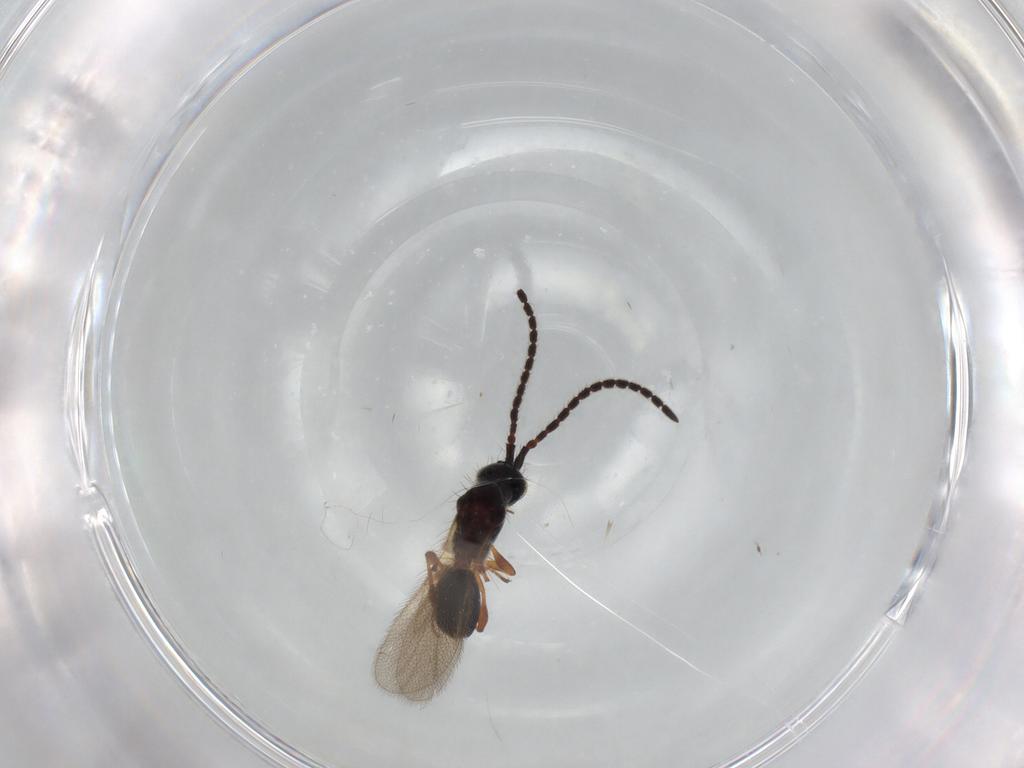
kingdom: Animalia
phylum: Arthropoda
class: Insecta
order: Hymenoptera
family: Diapriidae
